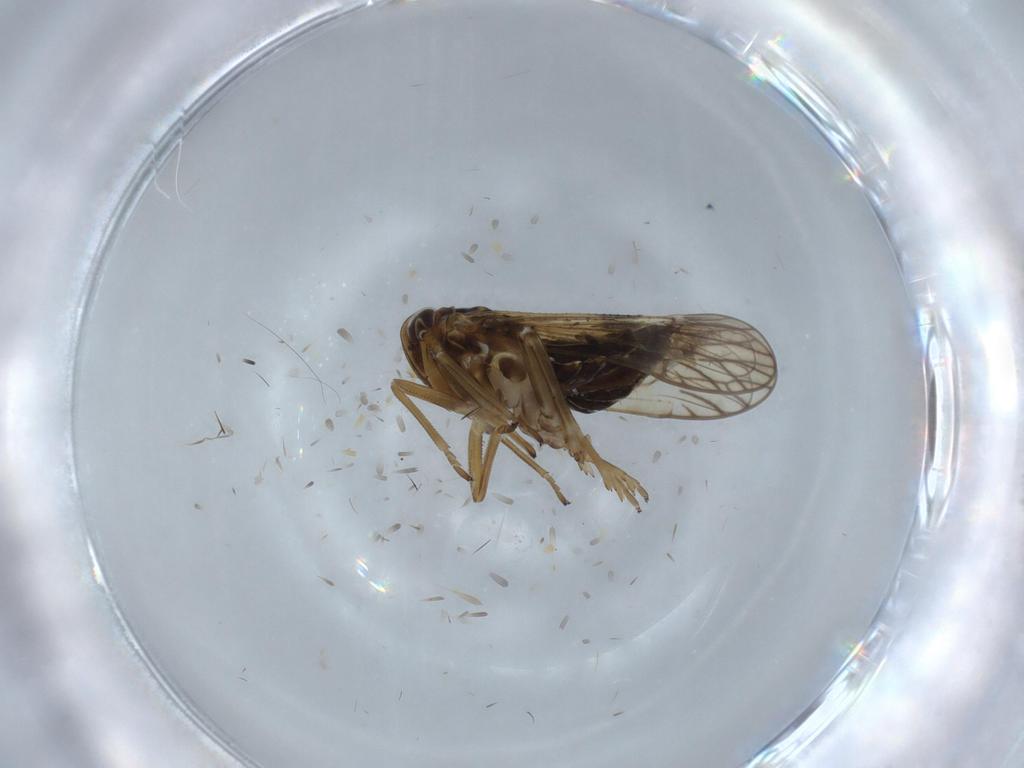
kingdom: Animalia
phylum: Arthropoda
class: Insecta
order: Hemiptera
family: Delphacidae
